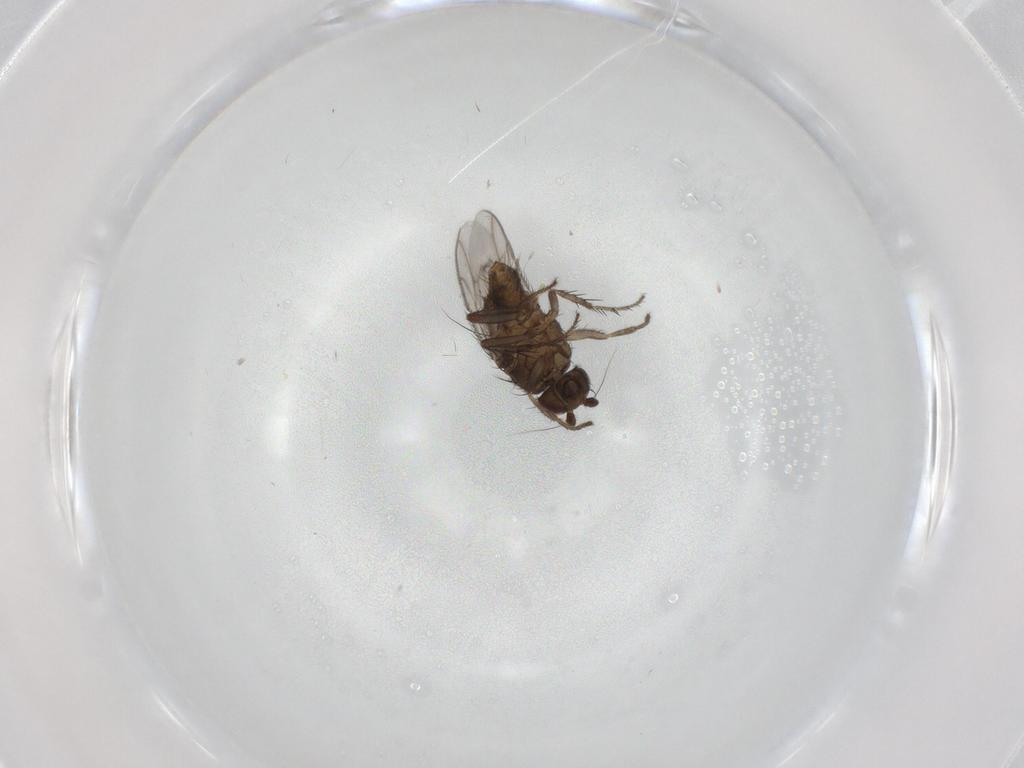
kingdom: Animalia
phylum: Arthropoda
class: Insecta
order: Diptera
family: Sphaeroceridae
